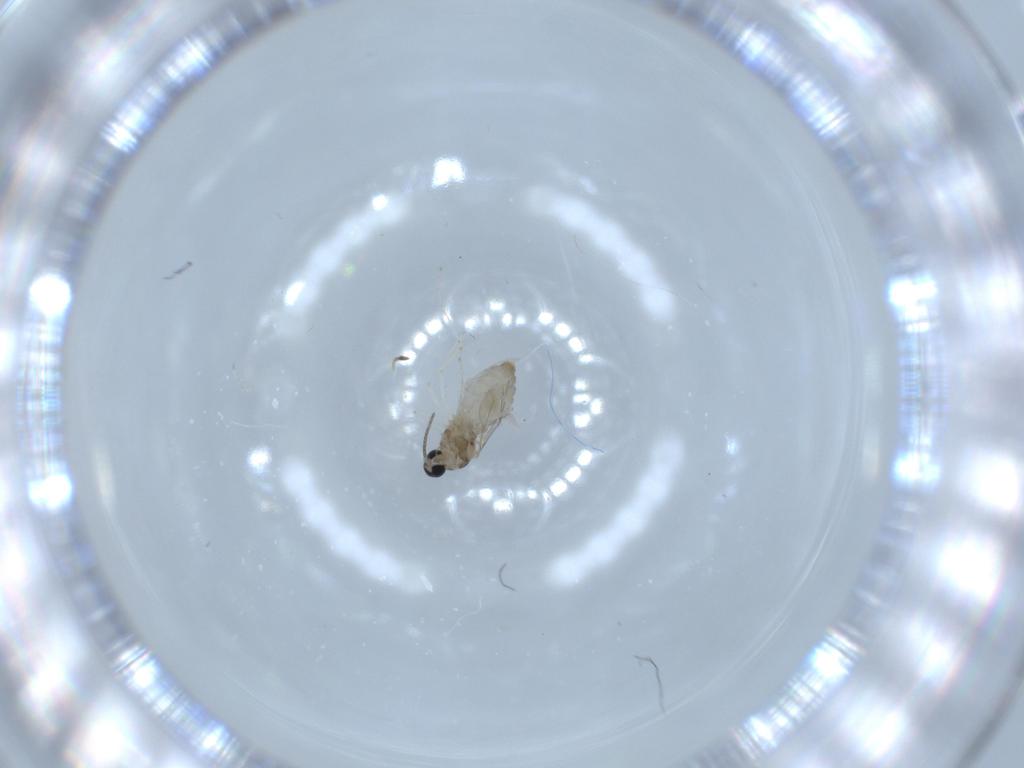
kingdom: Animalia
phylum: Arthropoda
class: Insecta
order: Diptera
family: Cecidomyiidae
